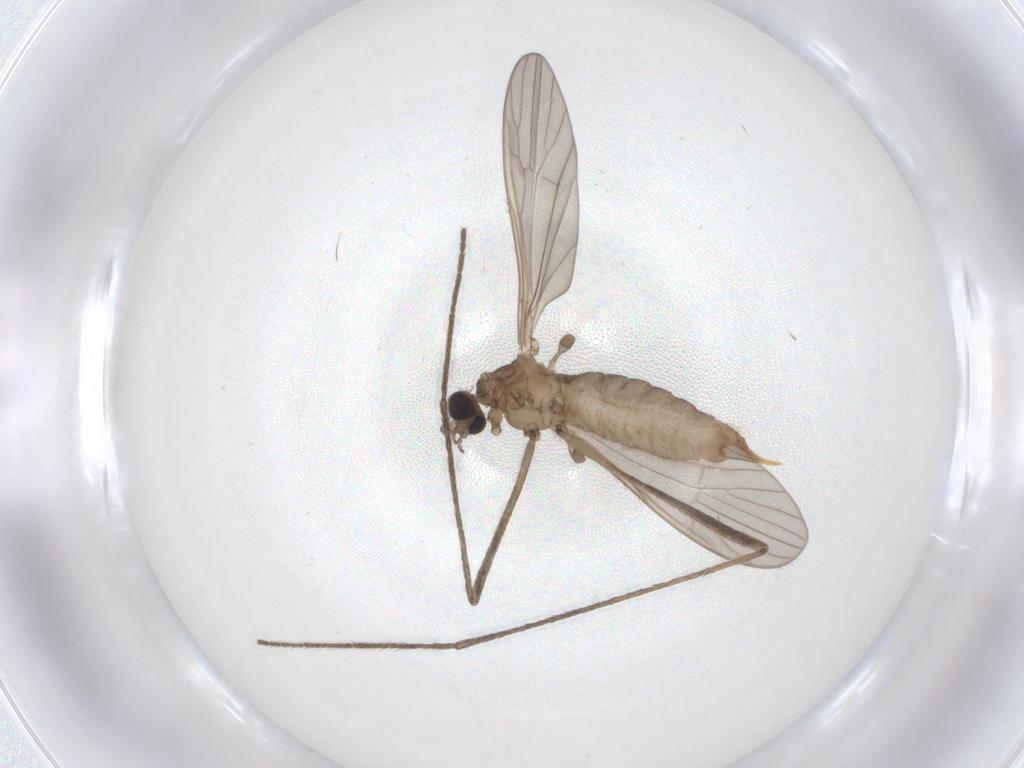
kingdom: Animalia
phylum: Arthropoda
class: Insecta
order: Diptera
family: Limoniidae
